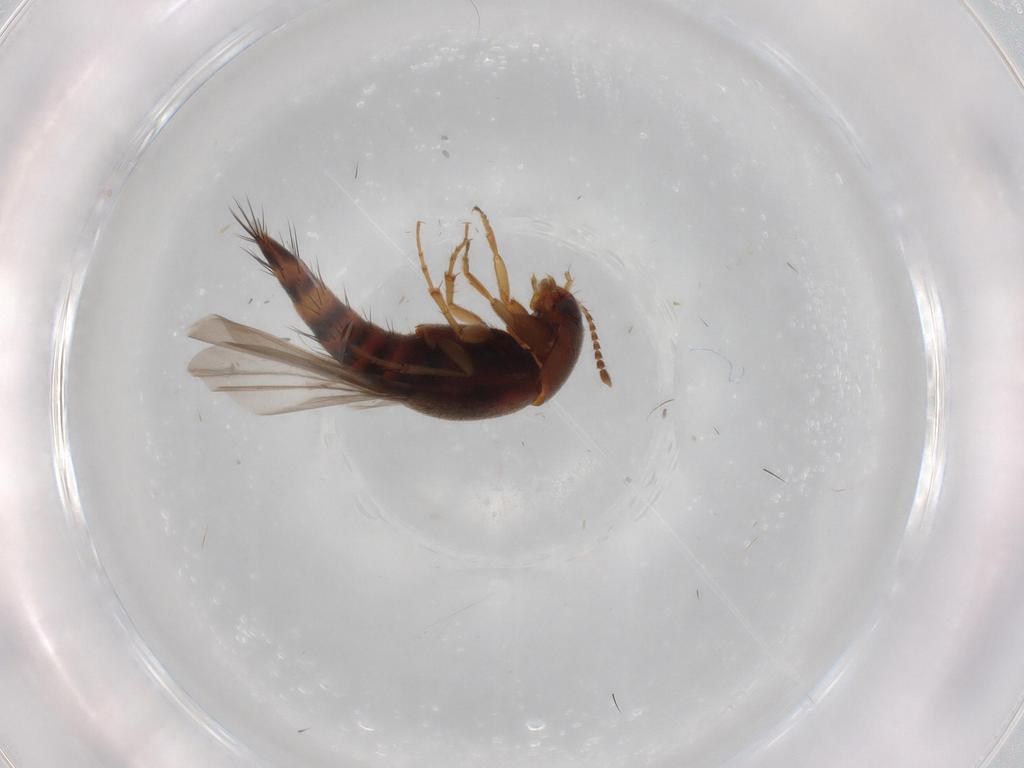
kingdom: Animalia
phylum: Arthropoda
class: Insecta
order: Coleoptera
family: Staphylinidae
